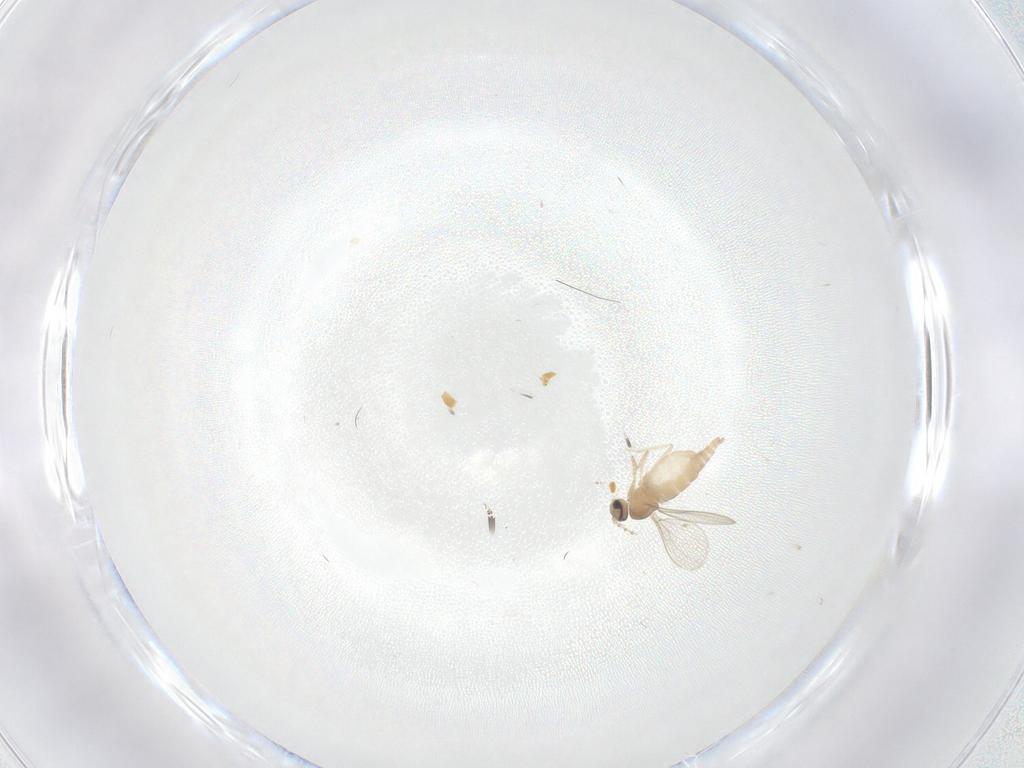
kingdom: Animalia
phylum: Arthropoda
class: Insecta
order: Diptera
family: Cecidomyiidae
